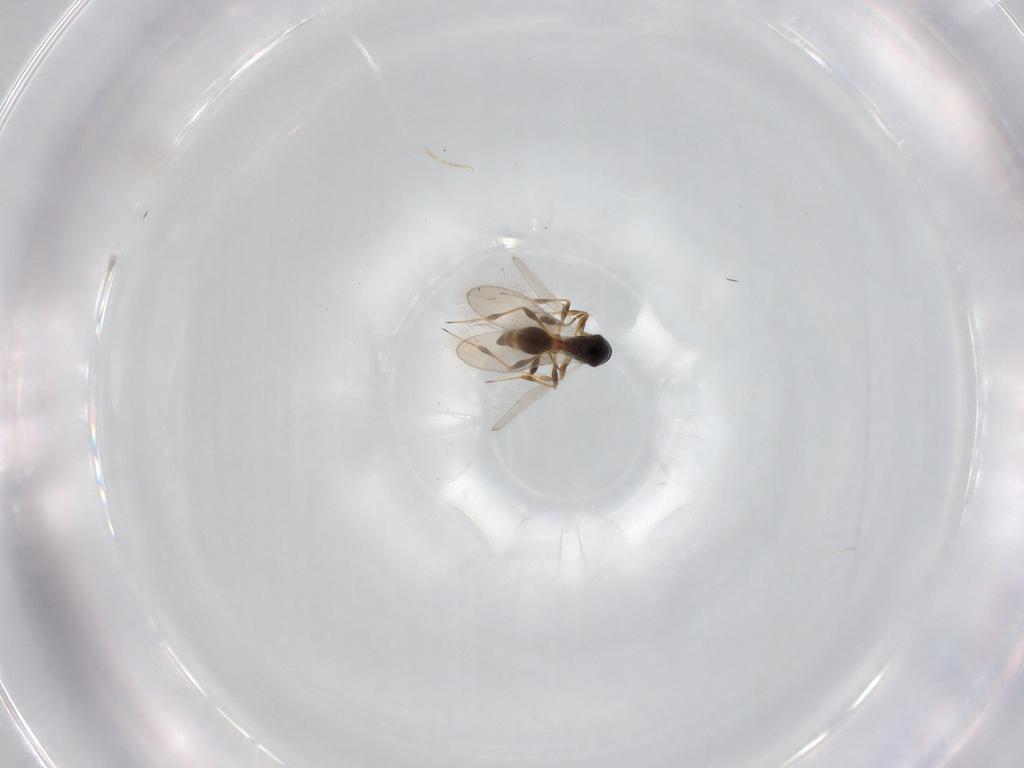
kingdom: Animalia
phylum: Arthropoda
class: Insecta
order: Hymenoptera
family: Platygastridae
